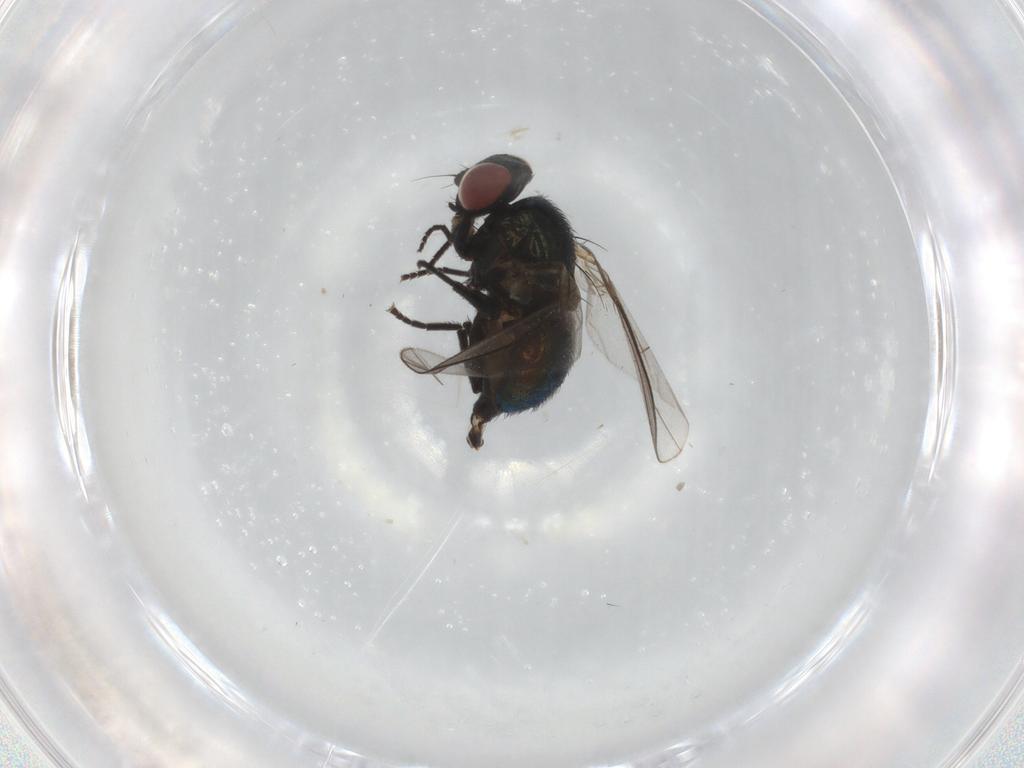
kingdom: Animalia
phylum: Arthropoda
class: Insecta
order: Diptera
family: Agromyzidae
